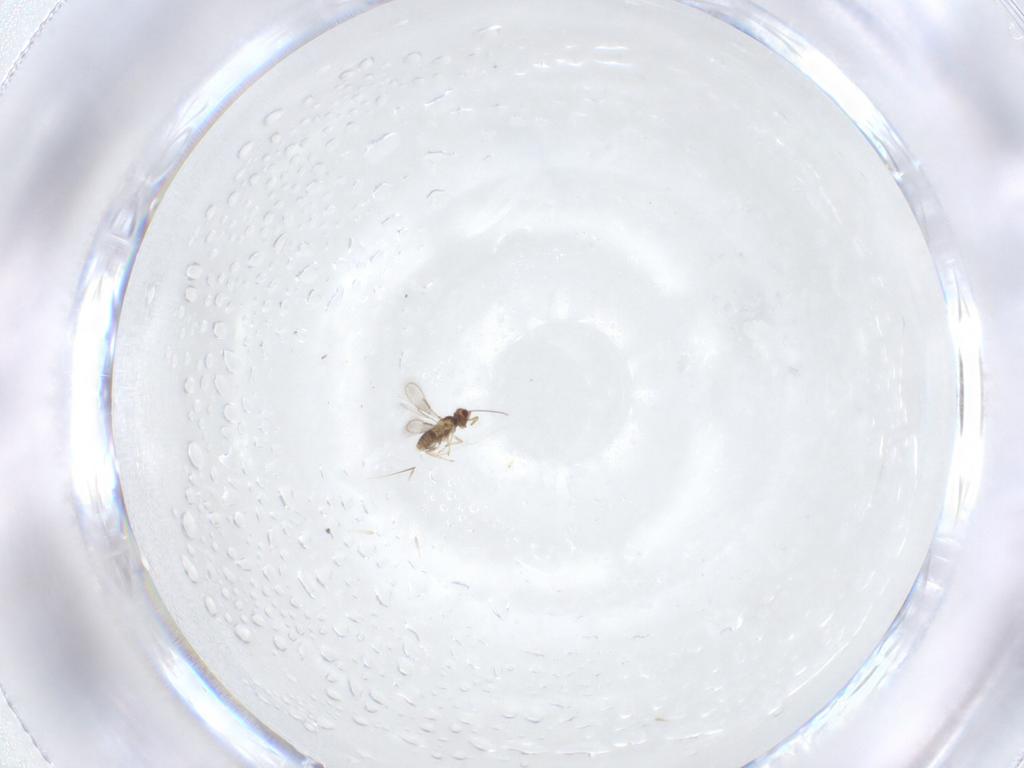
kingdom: Animalia
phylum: Arthropoda
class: Insecta
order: Hymenoptera
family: Aphelinidae
